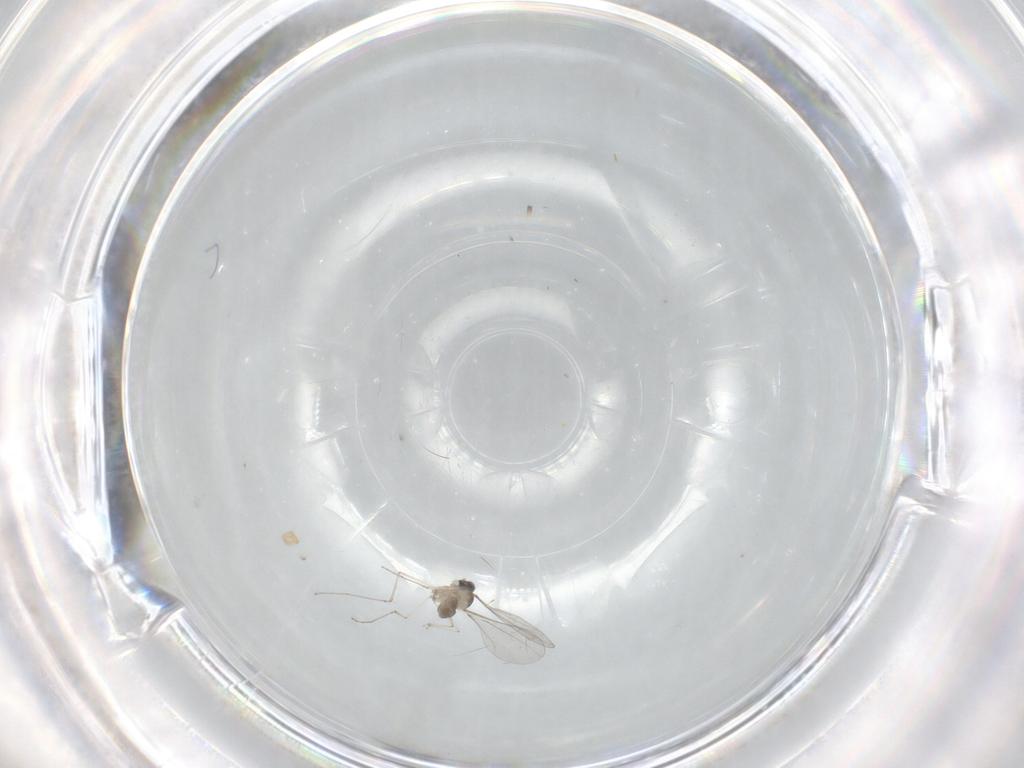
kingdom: Animalia
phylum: Arthropoda
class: Insecta
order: Diptera
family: Cecidomyiidae
